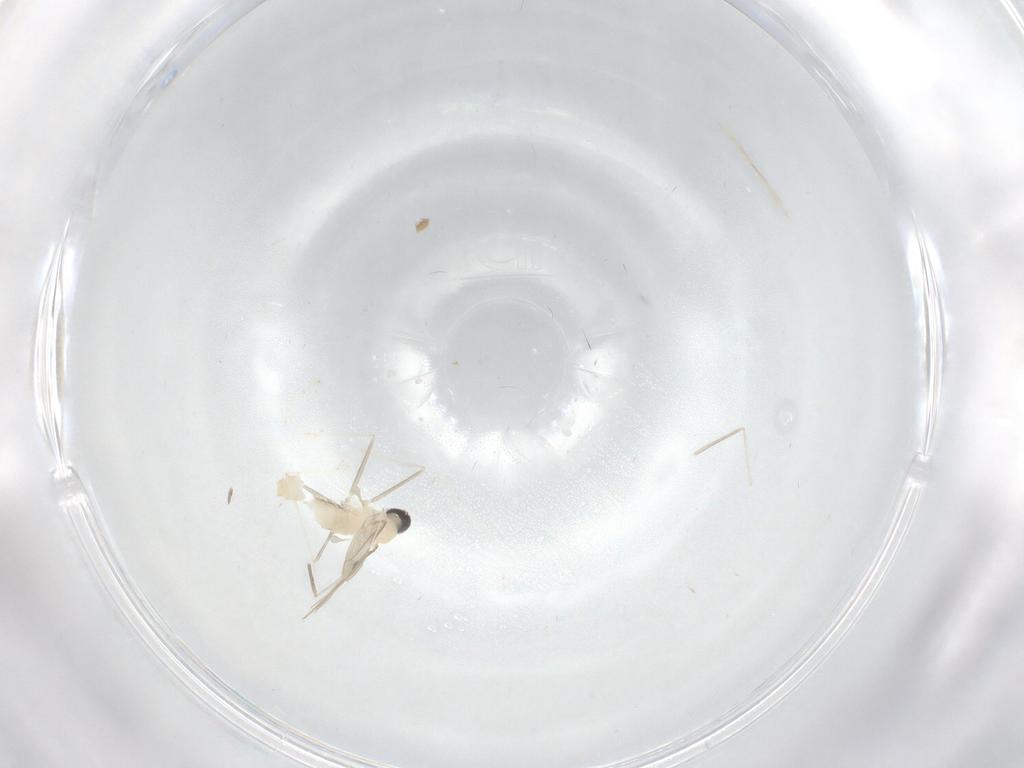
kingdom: Animalia
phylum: Arthropoda
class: Insecta
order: Diptera
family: Cecidomyiidae
